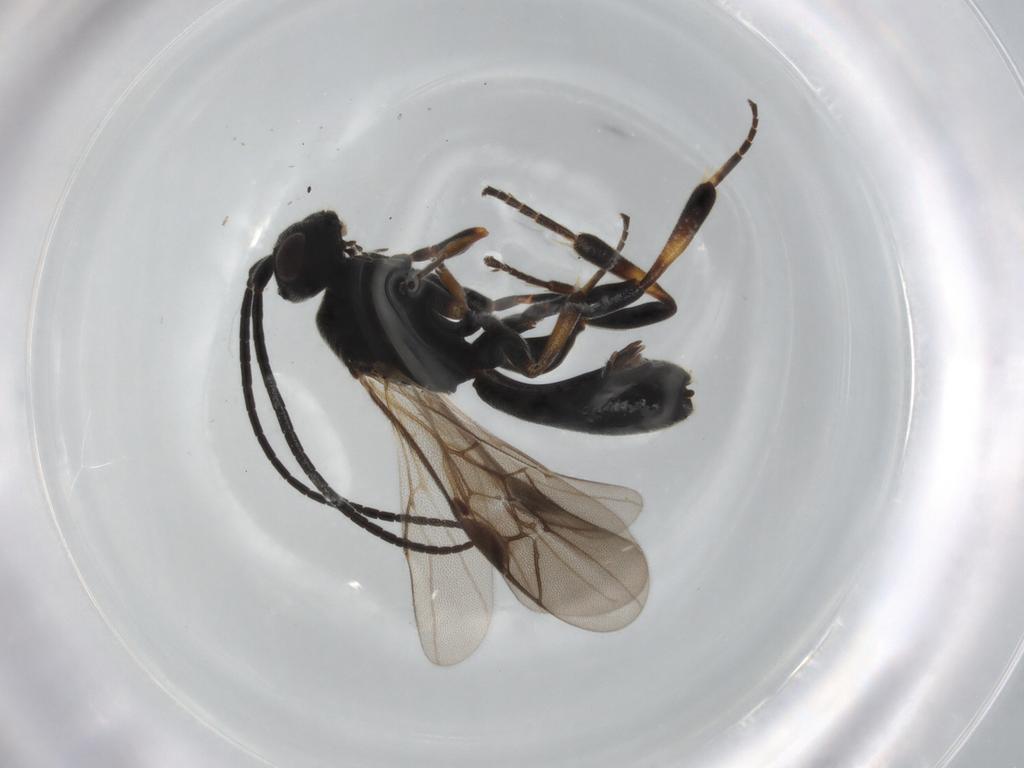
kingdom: Animalia
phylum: Arthropoda
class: Insecta
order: Hymenoptera
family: Braconidae
